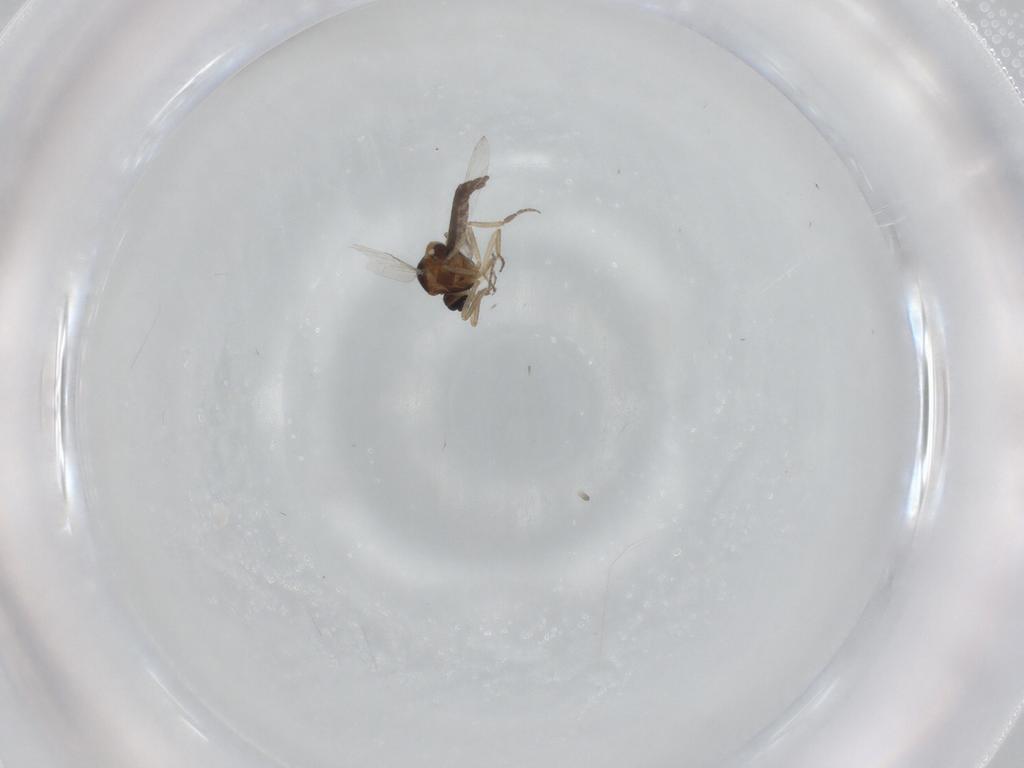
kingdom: Animalia
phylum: Arthropoda
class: Insecta
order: Diptera
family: Ceratopogonidae
